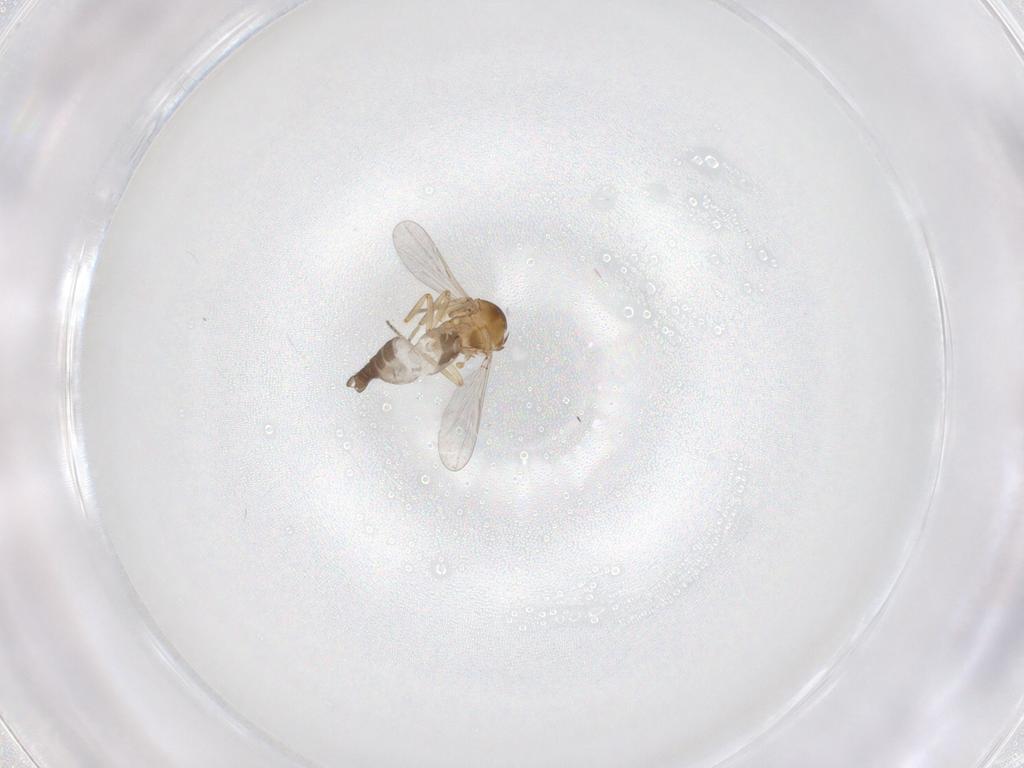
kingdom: Animalia
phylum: Arthropoda
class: Insecta
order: Diptera
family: Ceratopogonidae
